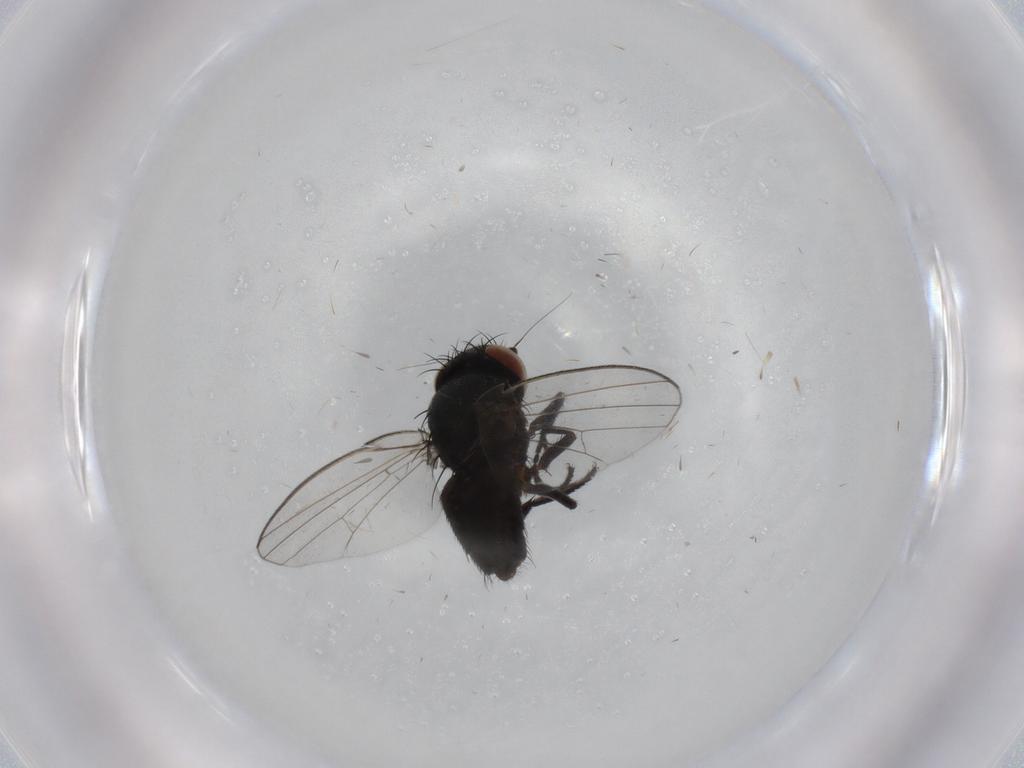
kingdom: Animalia
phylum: Arthropoda
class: Insecta
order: Diptera
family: Milichiidae
